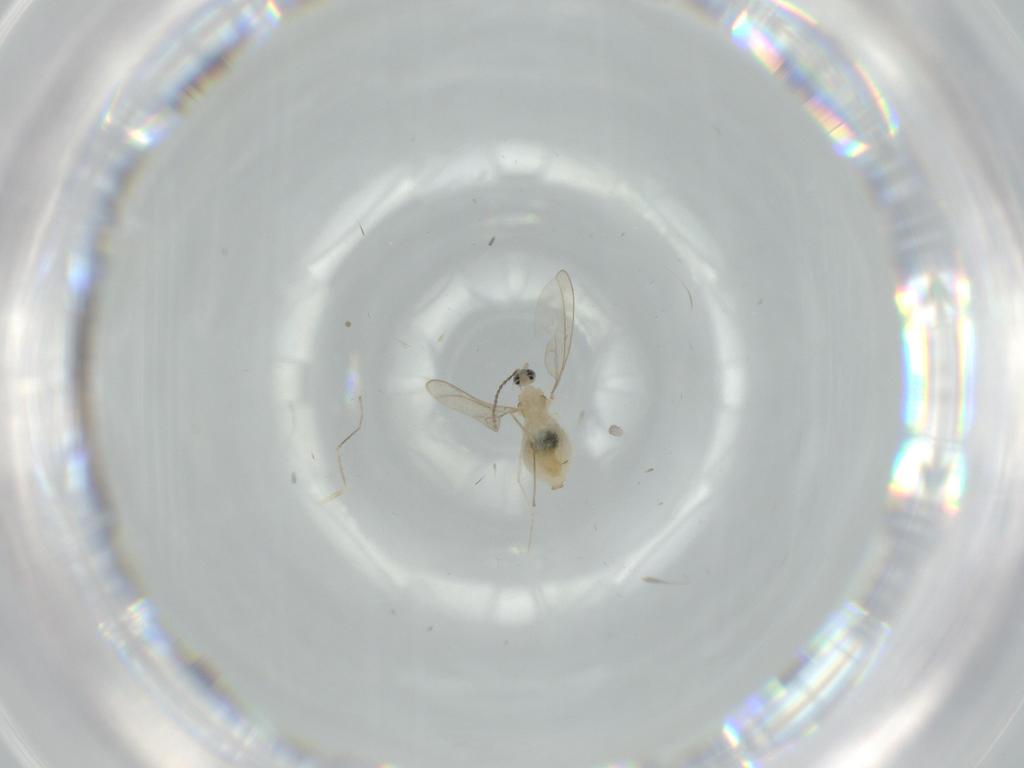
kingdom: Animalia
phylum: Arthropoda
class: Insecta
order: Diptera
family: Cecidomyiidae
